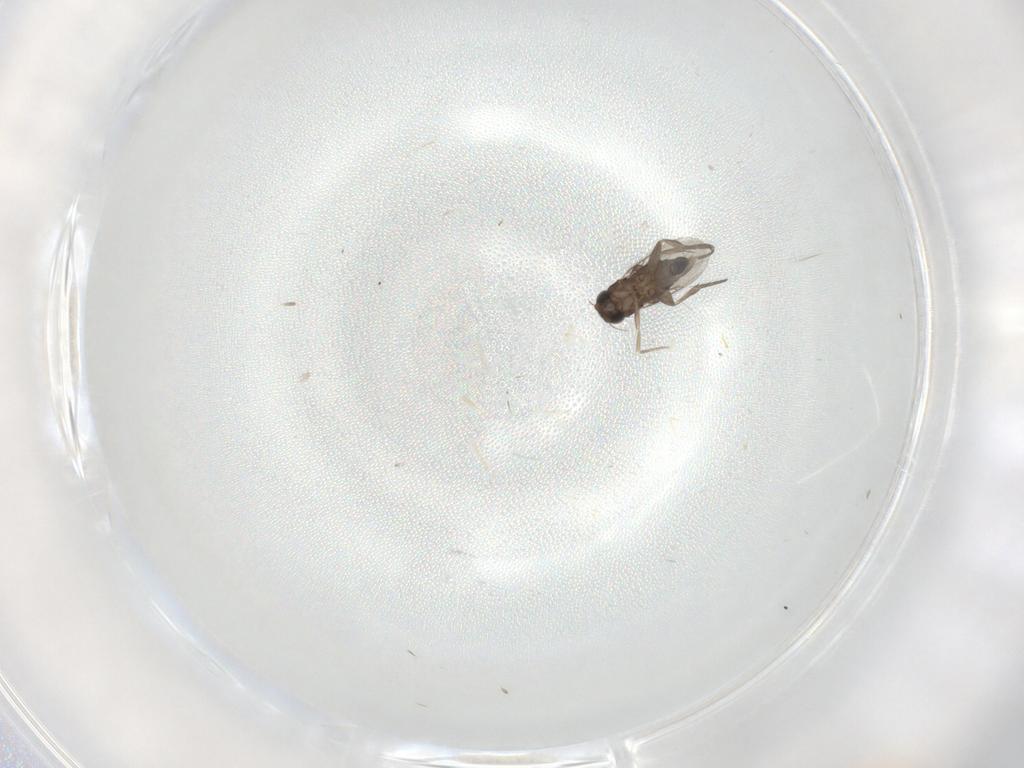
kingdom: Animalia
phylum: Arthropoda
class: Insecta
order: Diptera
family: Phoridae
